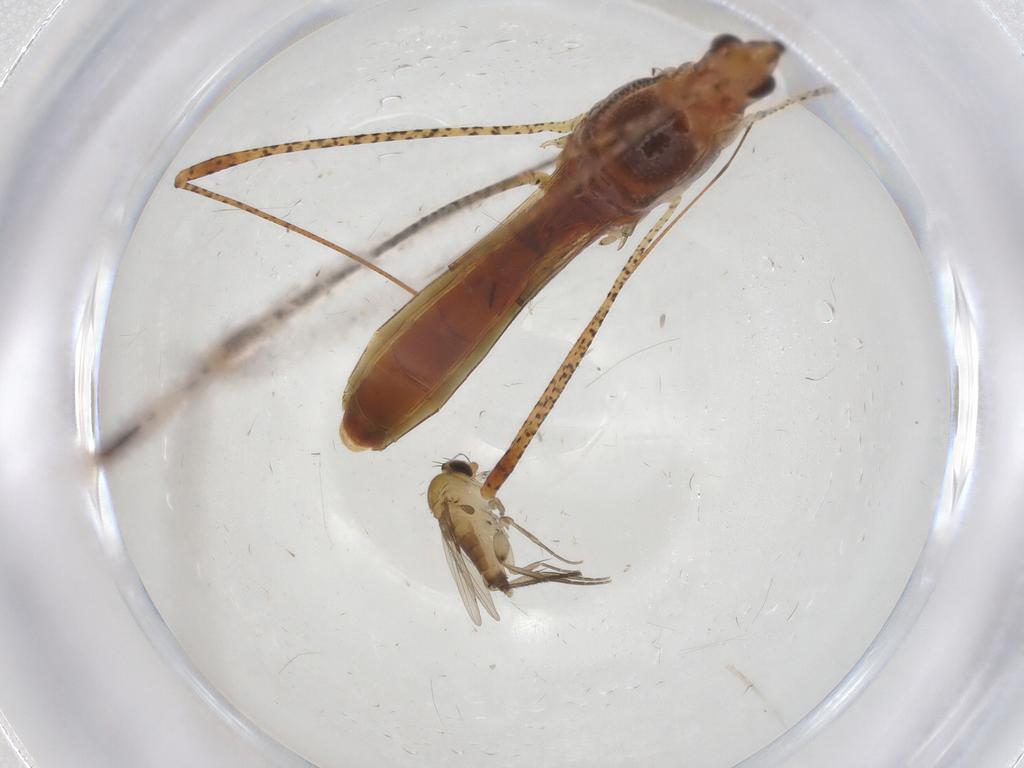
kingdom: Animalia
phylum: Arthropoda
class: Insecta
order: Diptera
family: Phoridae
